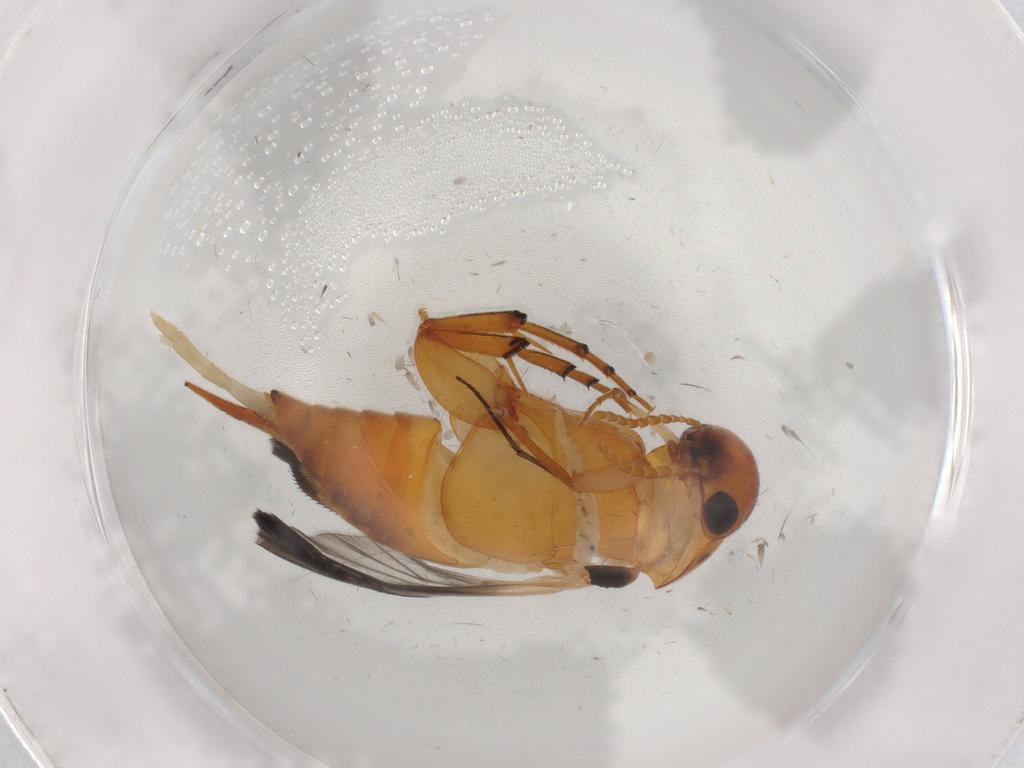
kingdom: Animalia
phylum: Arthropoda
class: Insecta
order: Coleoptera
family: Mordellidae
